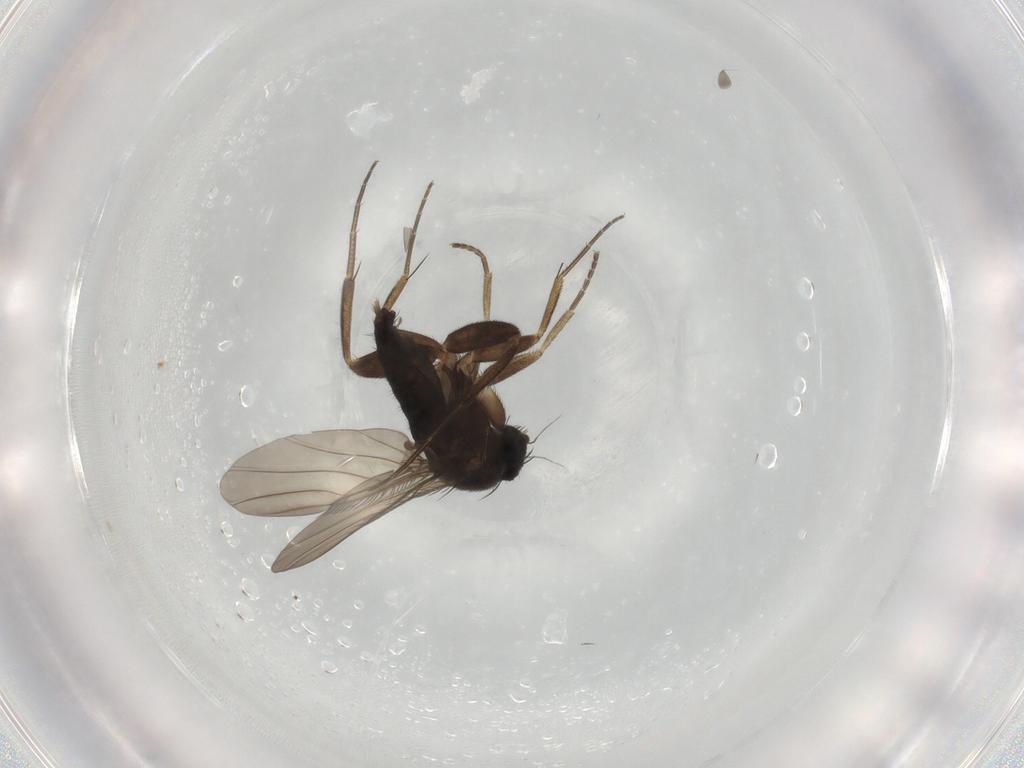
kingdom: Animalia
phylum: Arthropoda
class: Insecta
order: Diptera
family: Phoridae
